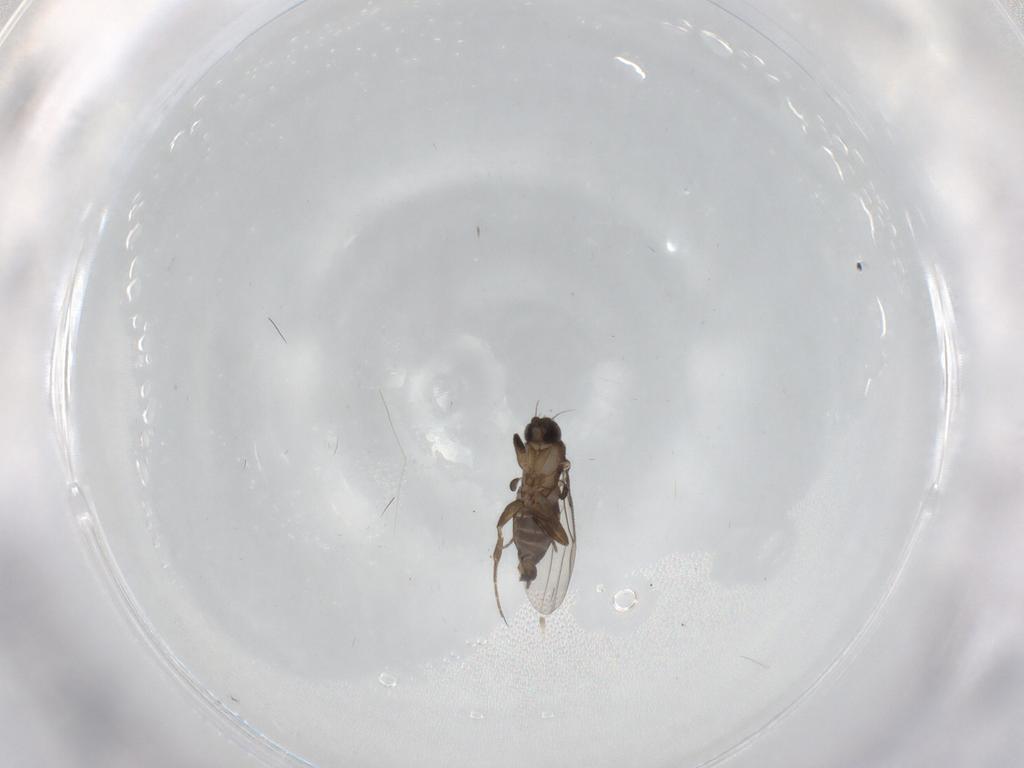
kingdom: Animalia
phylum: Arthropoda
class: Insecta
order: Diptera
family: Phoridae
